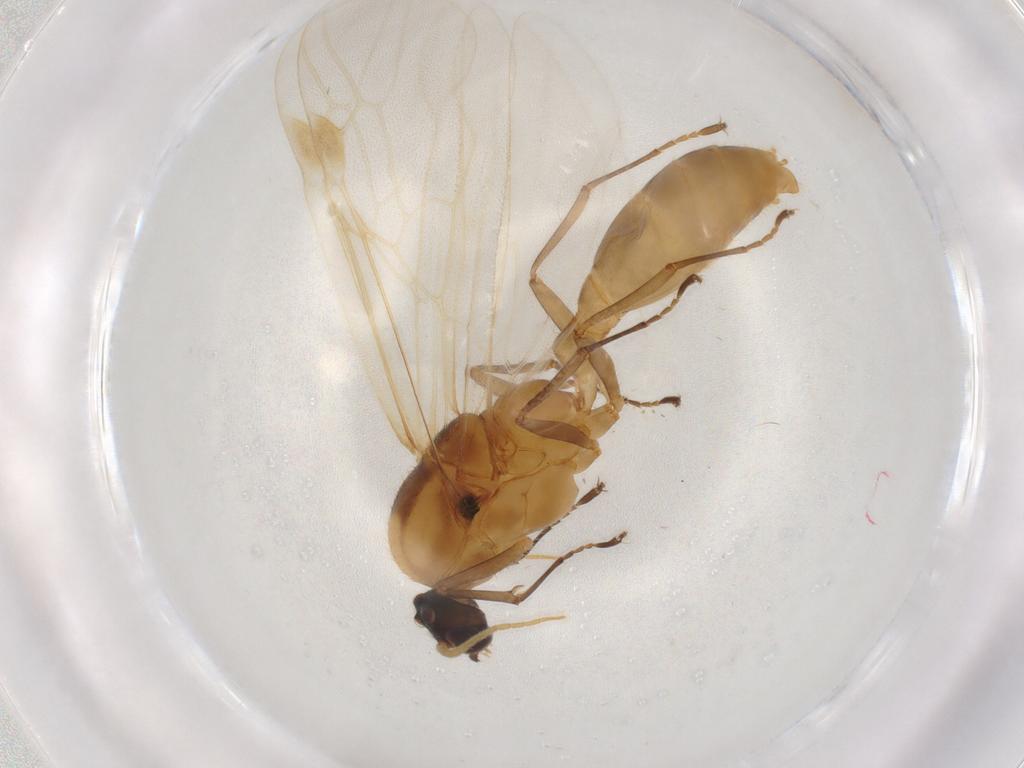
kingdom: Animalia
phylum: Arthropoda
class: Insecta
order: Hymenoptera
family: Formicidae
